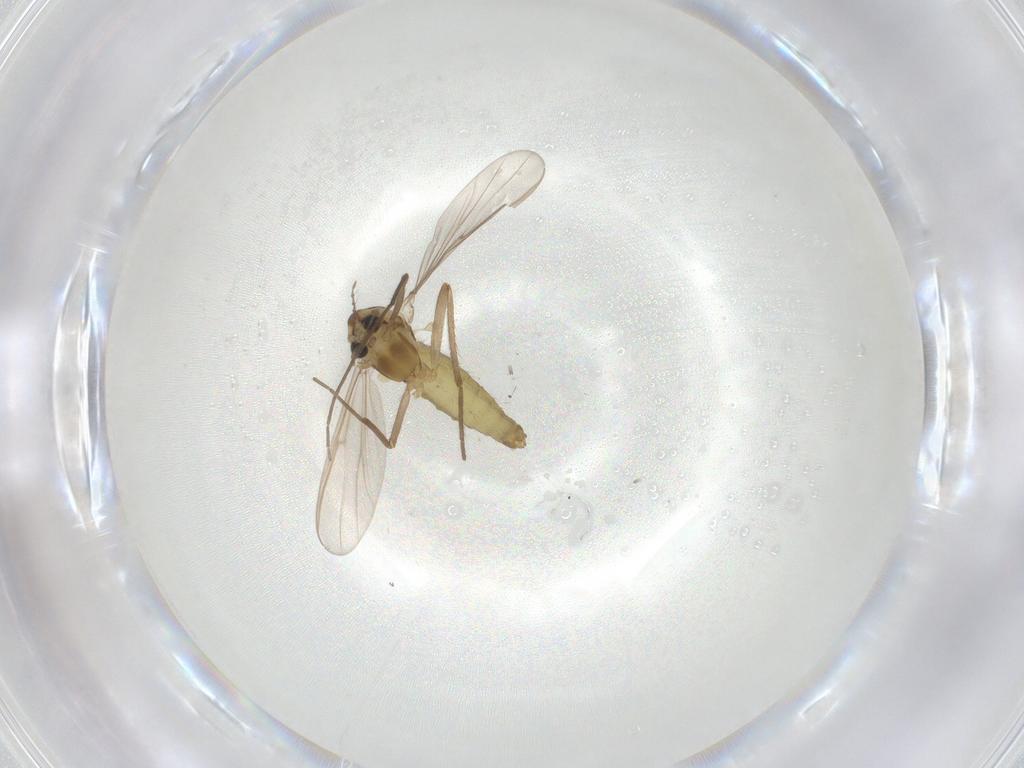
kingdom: Animalia
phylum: Arthropoda
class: Insecta
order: Diptera
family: Chironomidae
